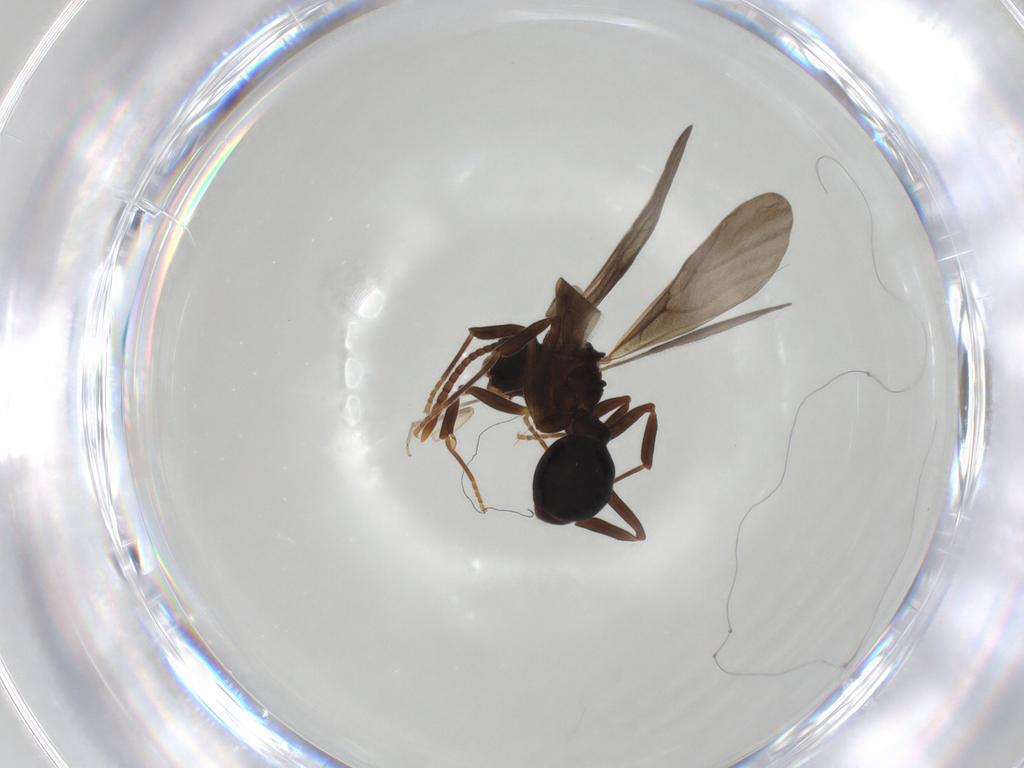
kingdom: Animalia
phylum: Arthropoda
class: Insecta
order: Hymenoptera
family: Formicidae
